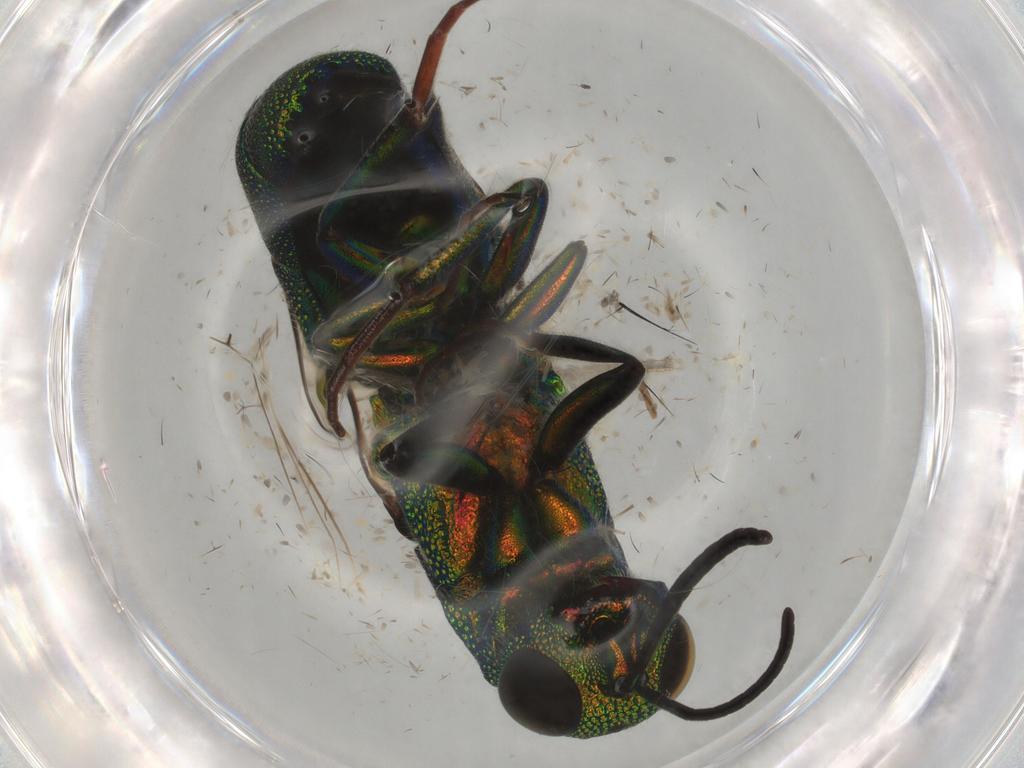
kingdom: Animalia
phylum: Arthropoda
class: Insecta
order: Hymenoptera
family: Chrysididae
